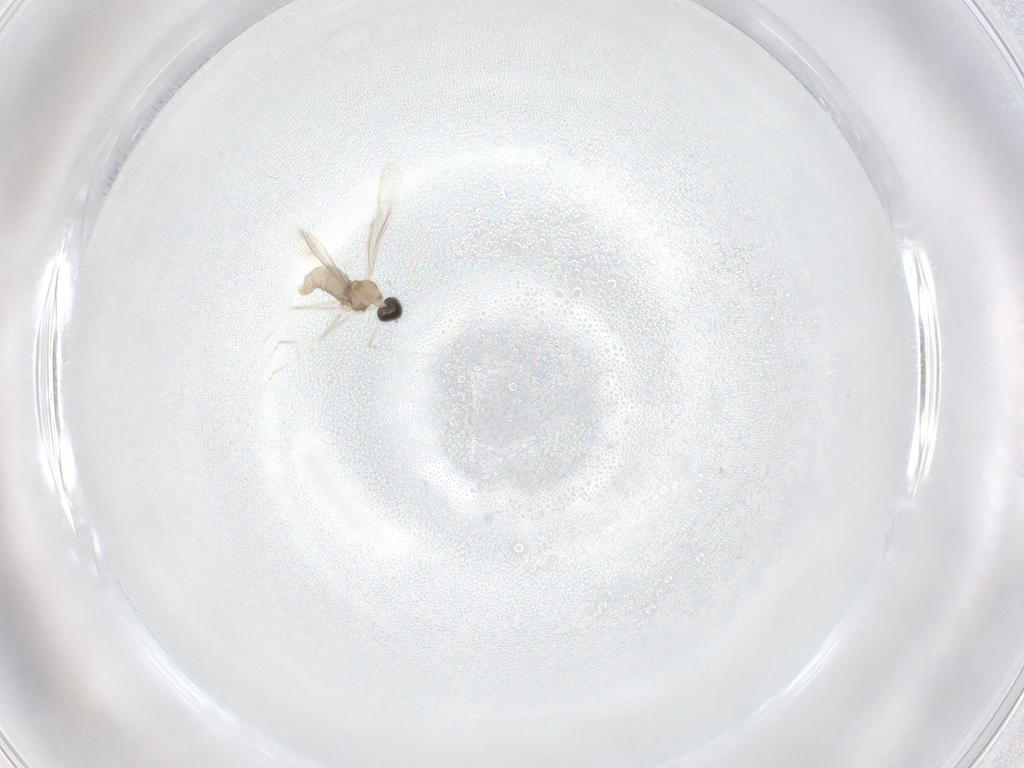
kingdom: Animalia
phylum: Arthropoda
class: Insecta
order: Diptera
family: Cecidomyiidae
